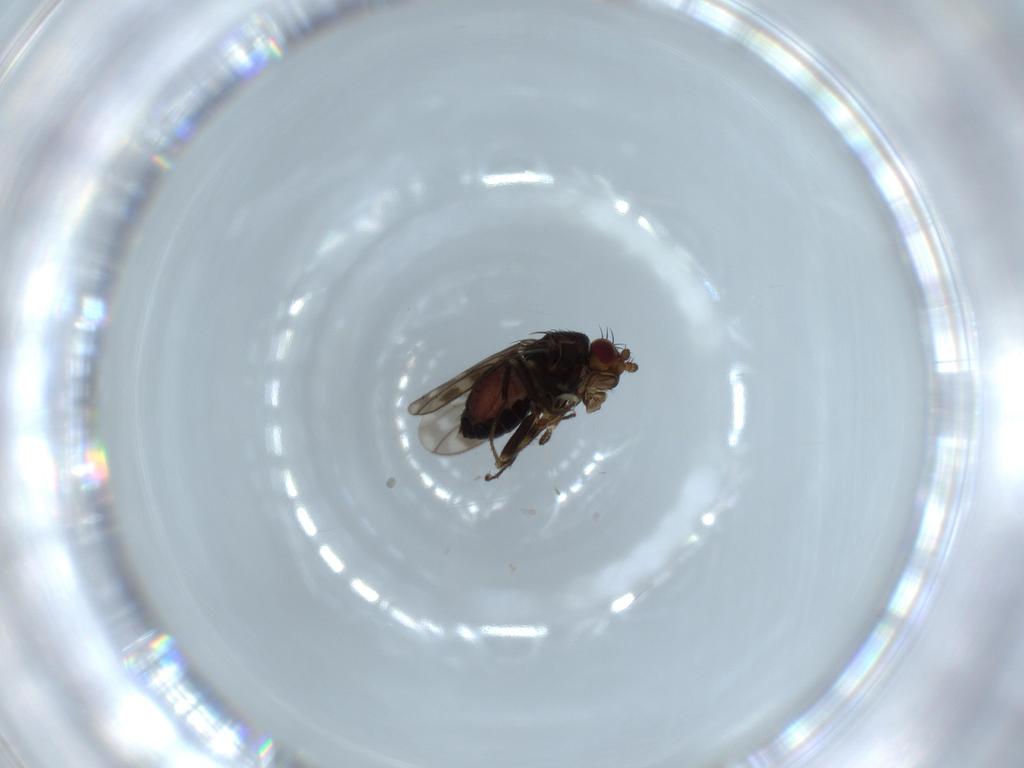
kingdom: Animalia
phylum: Arthropoda
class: Insecta
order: Diptera
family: Sphaeroceridae
